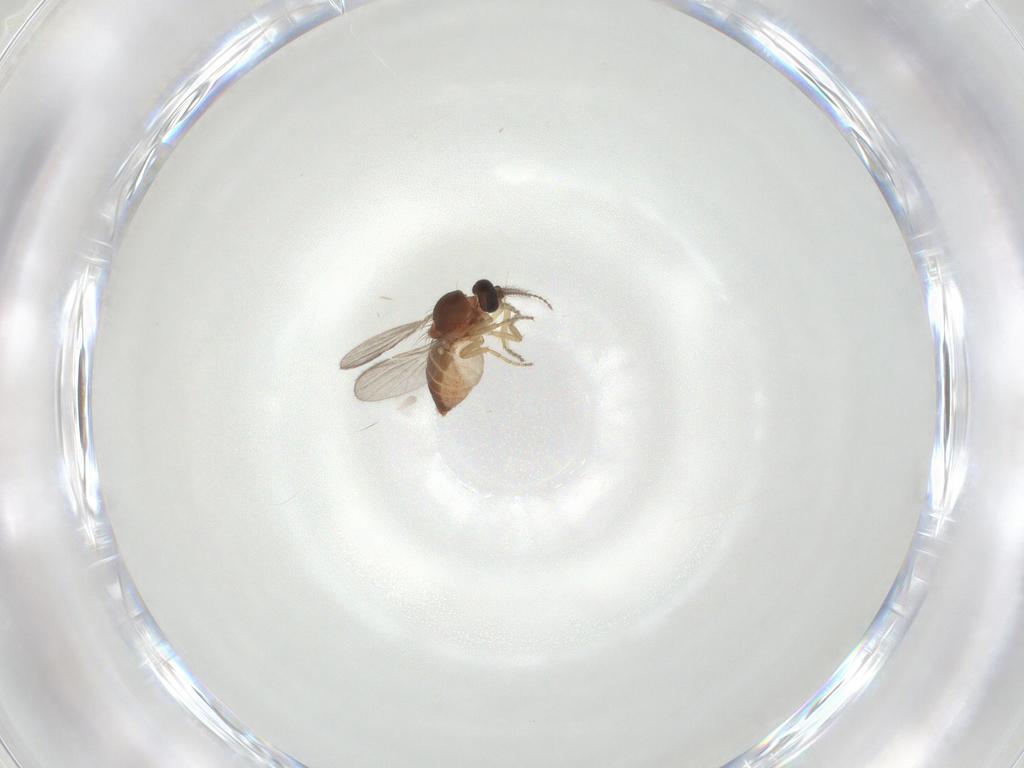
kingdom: Animalia
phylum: Arthropoda
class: Insecta
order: Diptera
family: Ceratopogonidae
